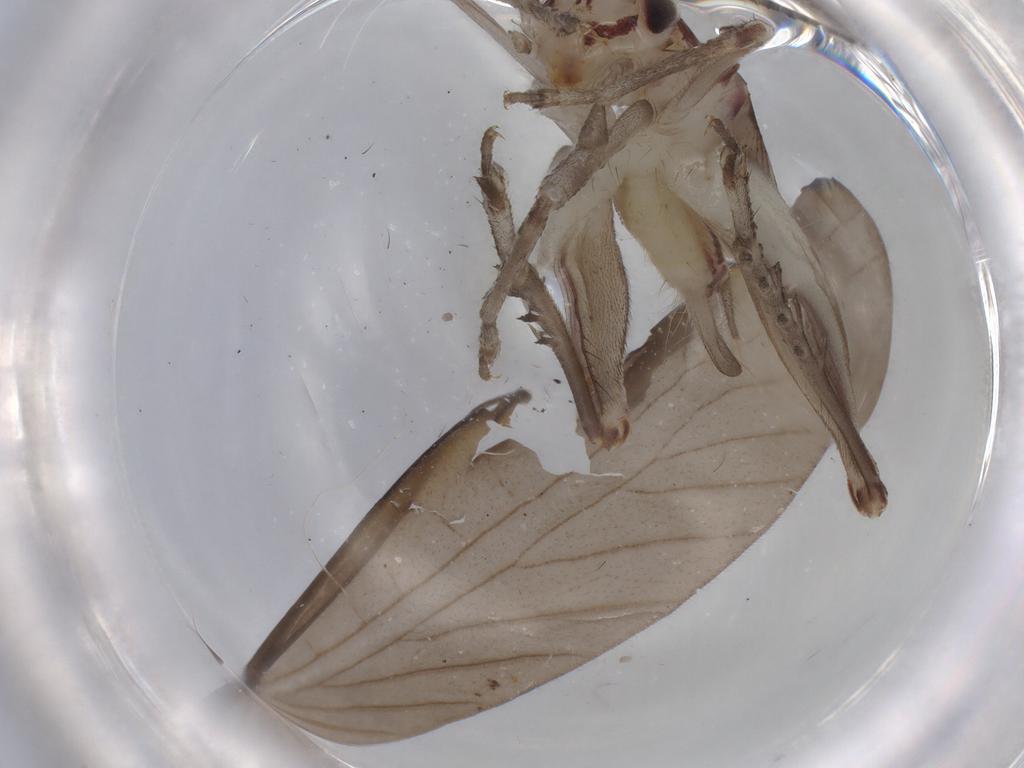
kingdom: Animalia
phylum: Arthropoda
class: Insecta
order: Orthoptera
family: Trigonidiidae
